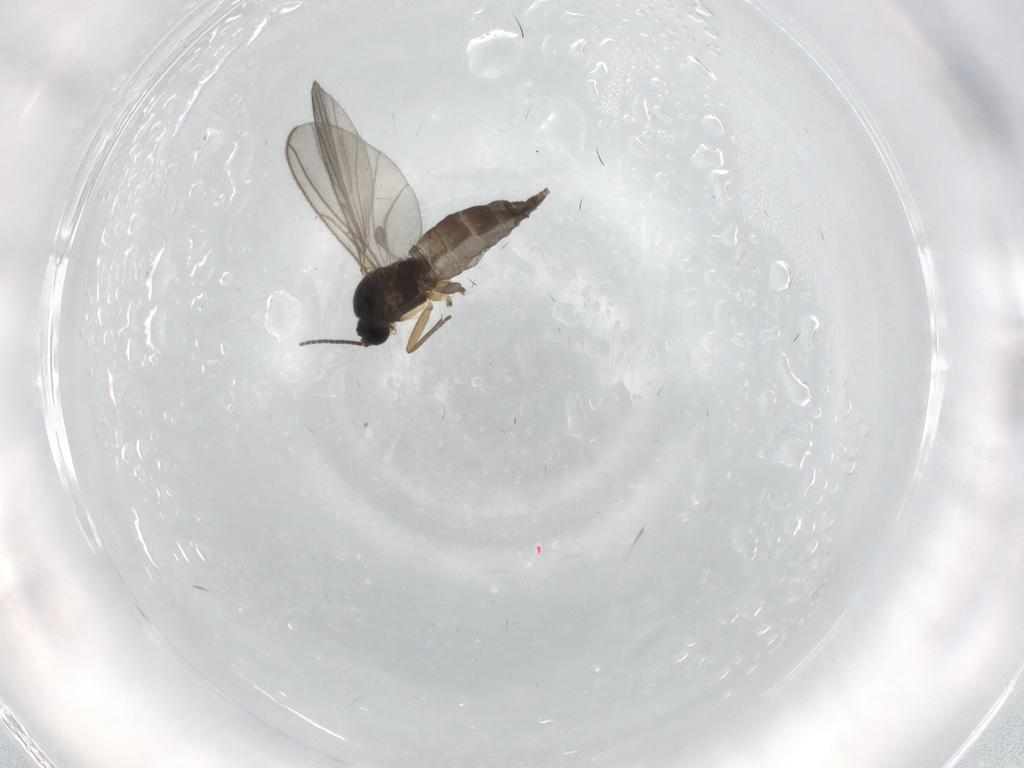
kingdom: Animalia
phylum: Arthropoda
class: Insecta
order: Diptera
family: Sciaridae
